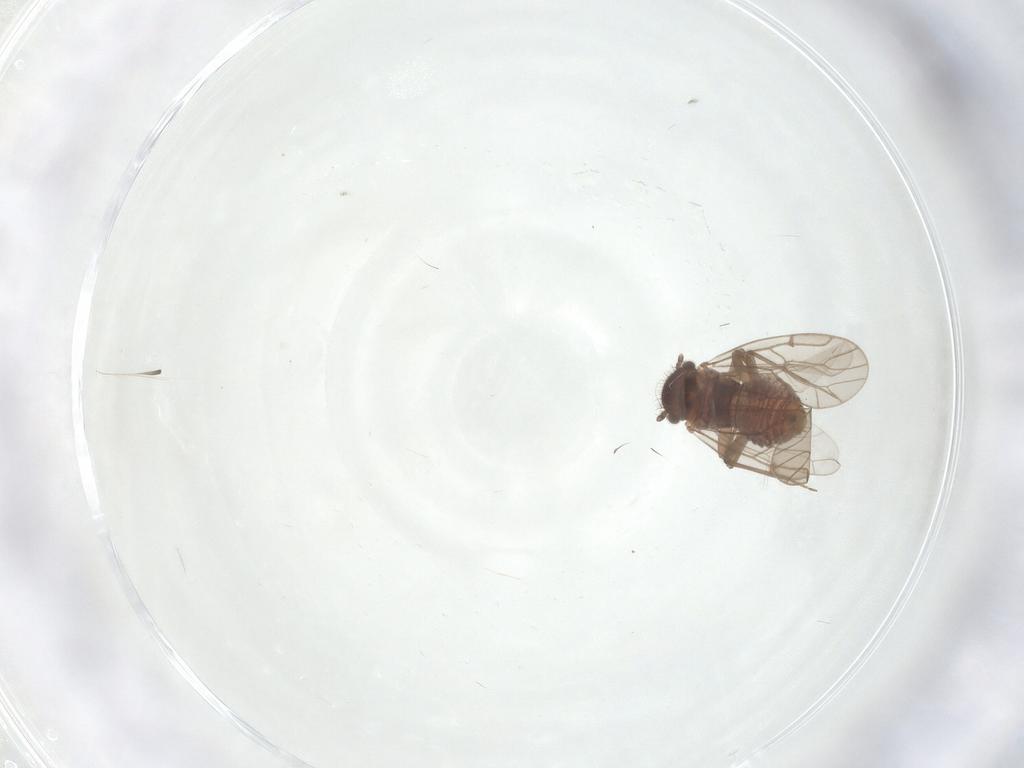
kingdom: Animalia
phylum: Arthropoda
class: Insecta
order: Psocodea
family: Ectopsocidae
